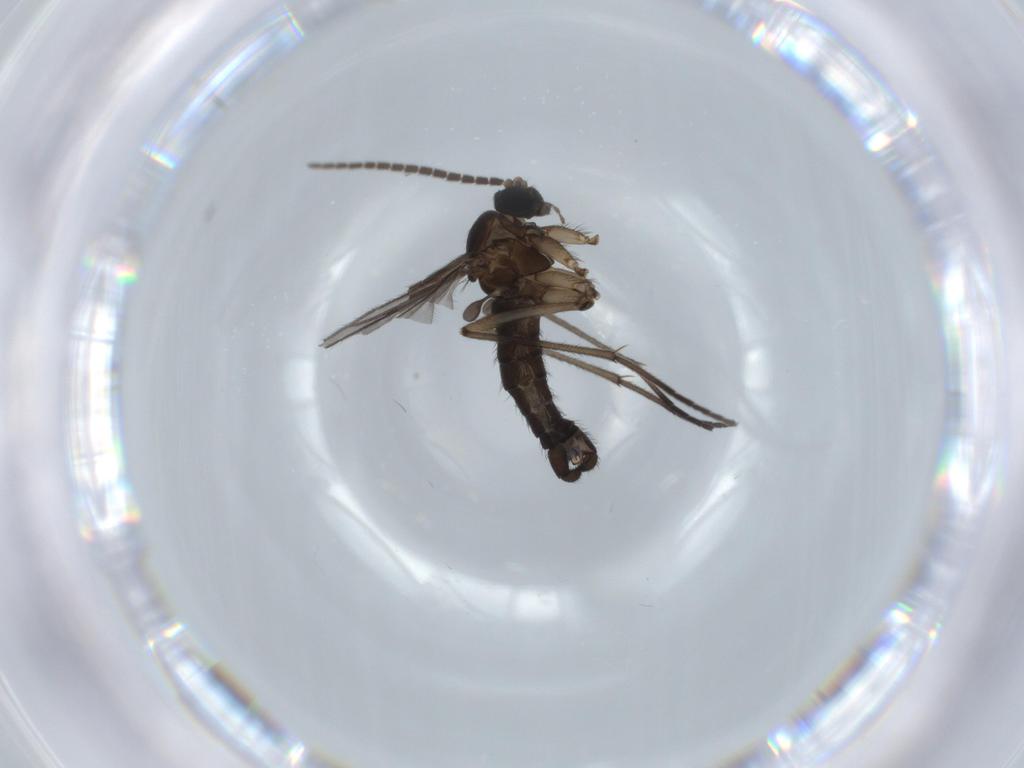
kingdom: Animalia
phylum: Arthropoda
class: Insecta
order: Diptera
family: Sciaridae
